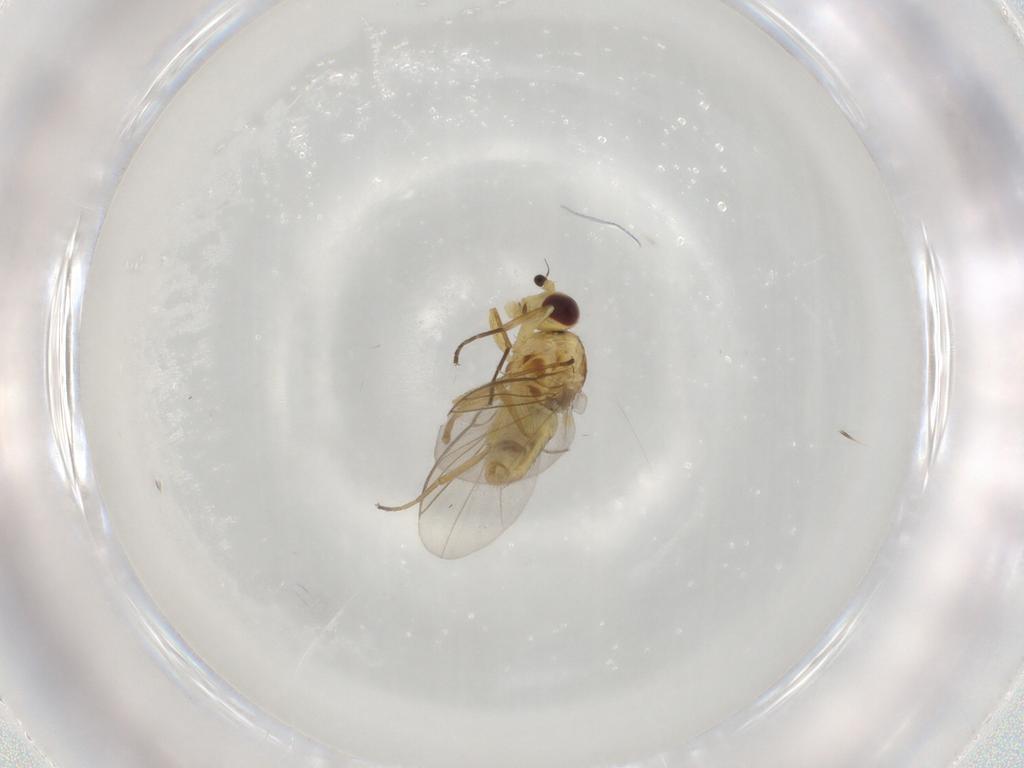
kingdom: Animalia
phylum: Arthropoda
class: Insecta
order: Diptera
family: Agromyzidae
